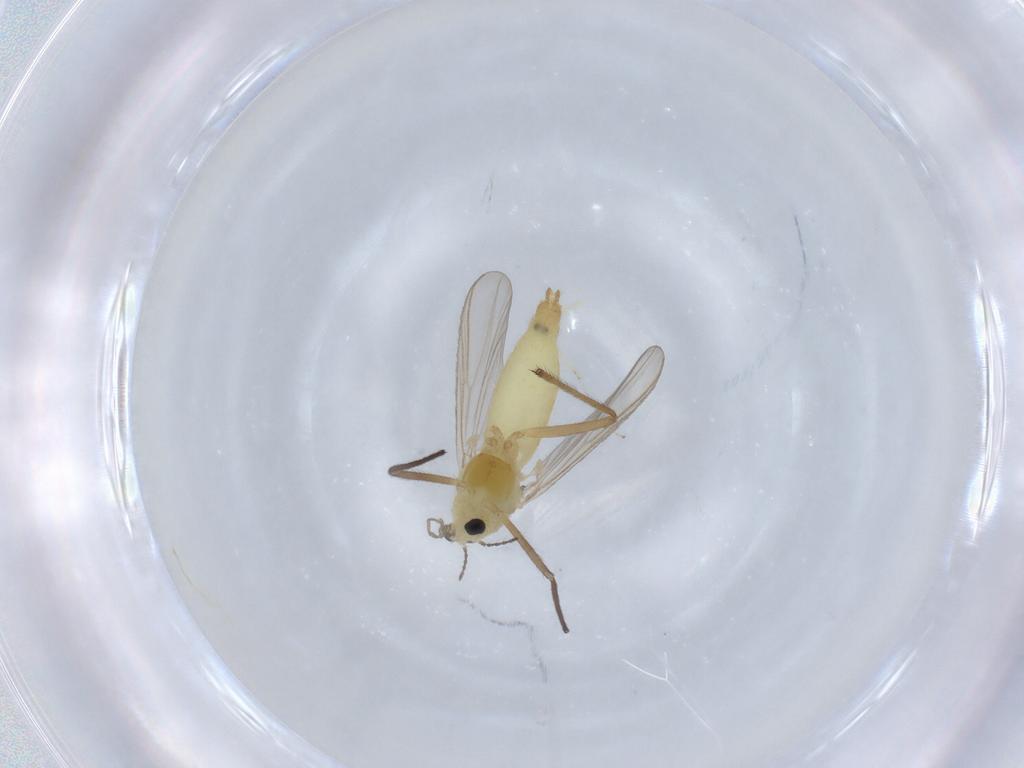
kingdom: Animalia
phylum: Arthropoda
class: Insecta
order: Diptera
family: Chironomidae
